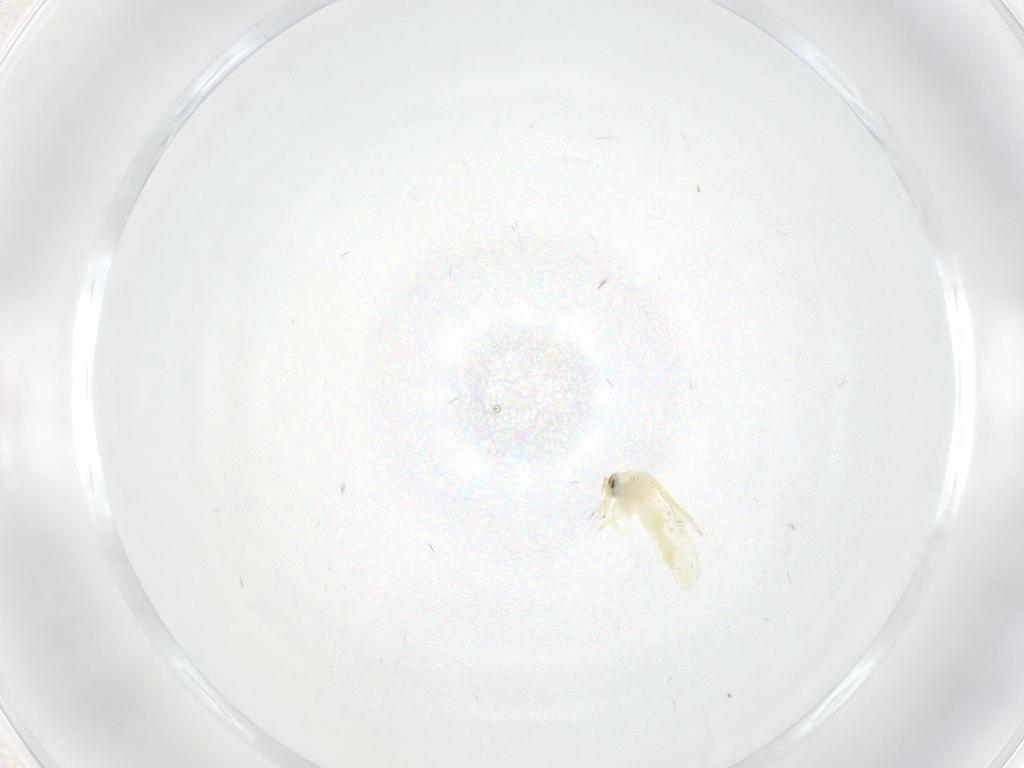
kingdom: Animalia
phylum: Arthropoda
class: Insecta
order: Hemiptera
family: Aleyrodidae
